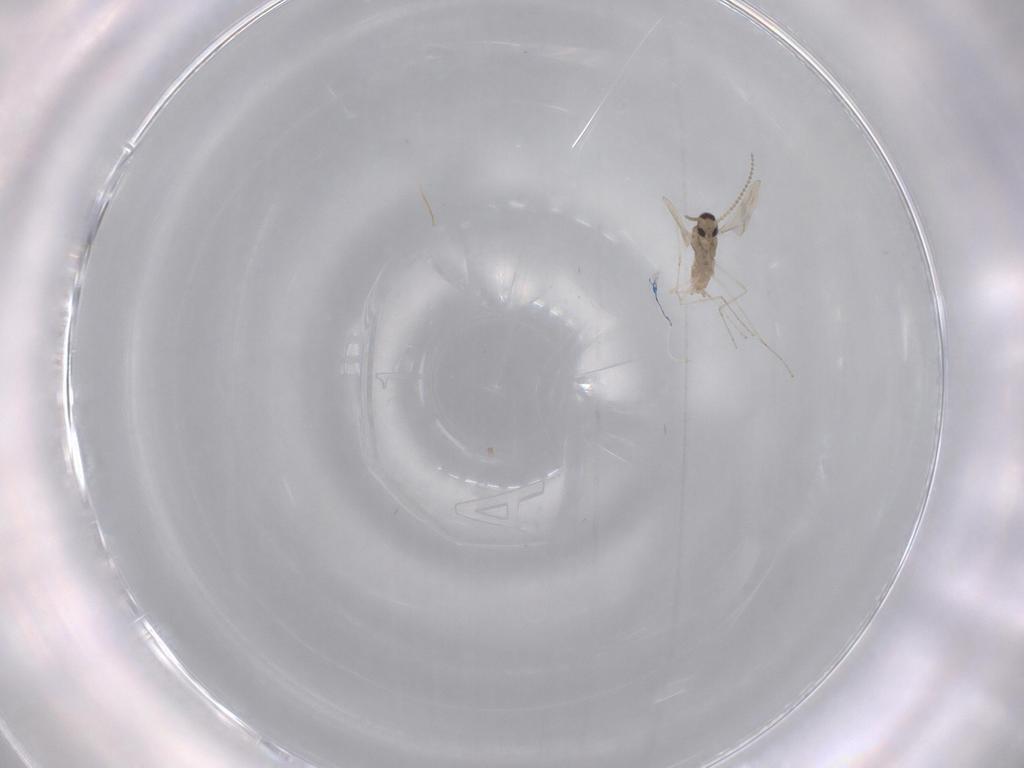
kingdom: Animalia
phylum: Arthropoda
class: Insecta
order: Diptera
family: Cecidomyiidae
